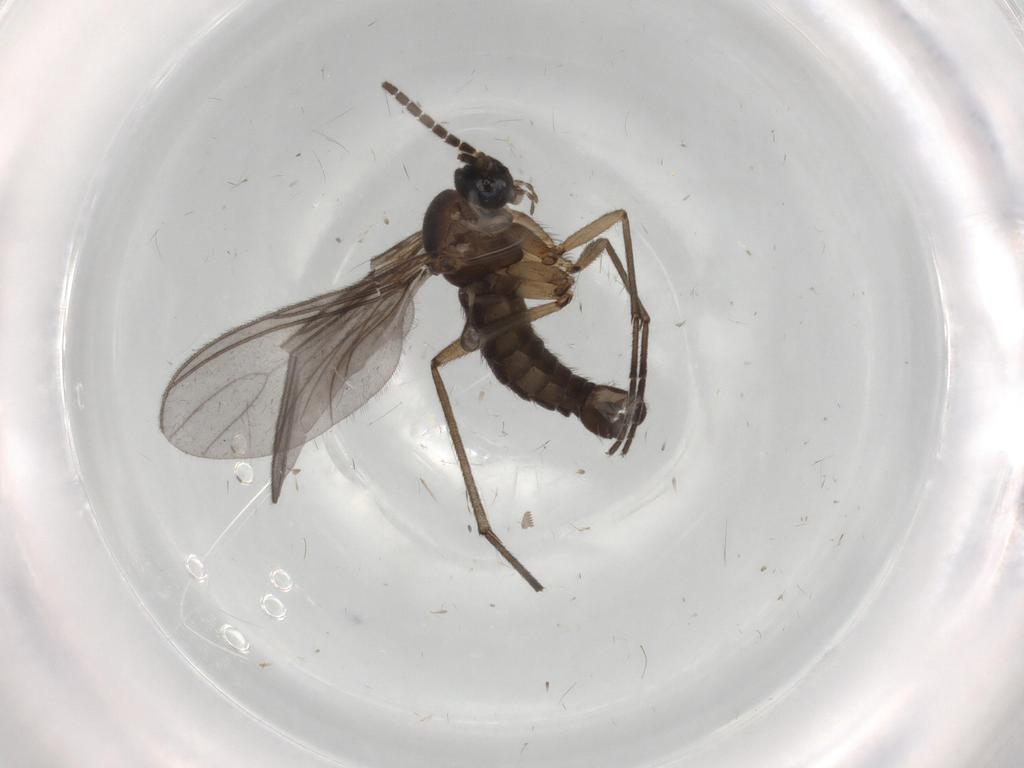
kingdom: Animalia
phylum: Arthropoda
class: Insecta
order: Diptera
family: Sciaridae
